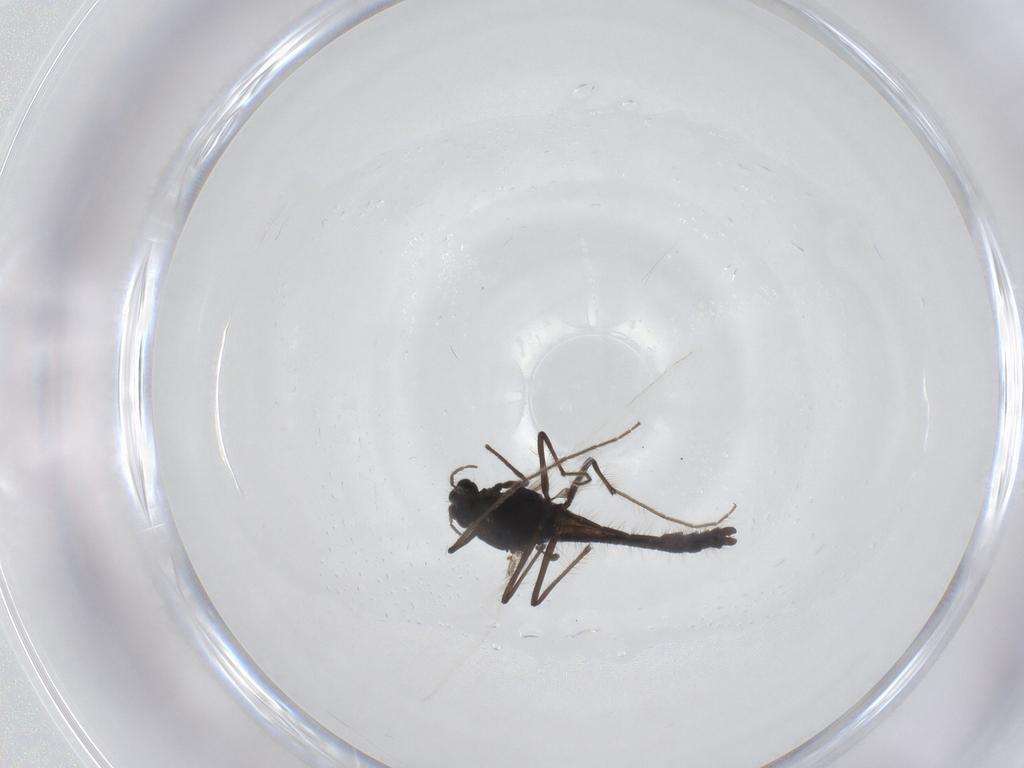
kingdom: Animalia
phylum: Arthropoda
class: Insecta
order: Diptera
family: Chironomidae
